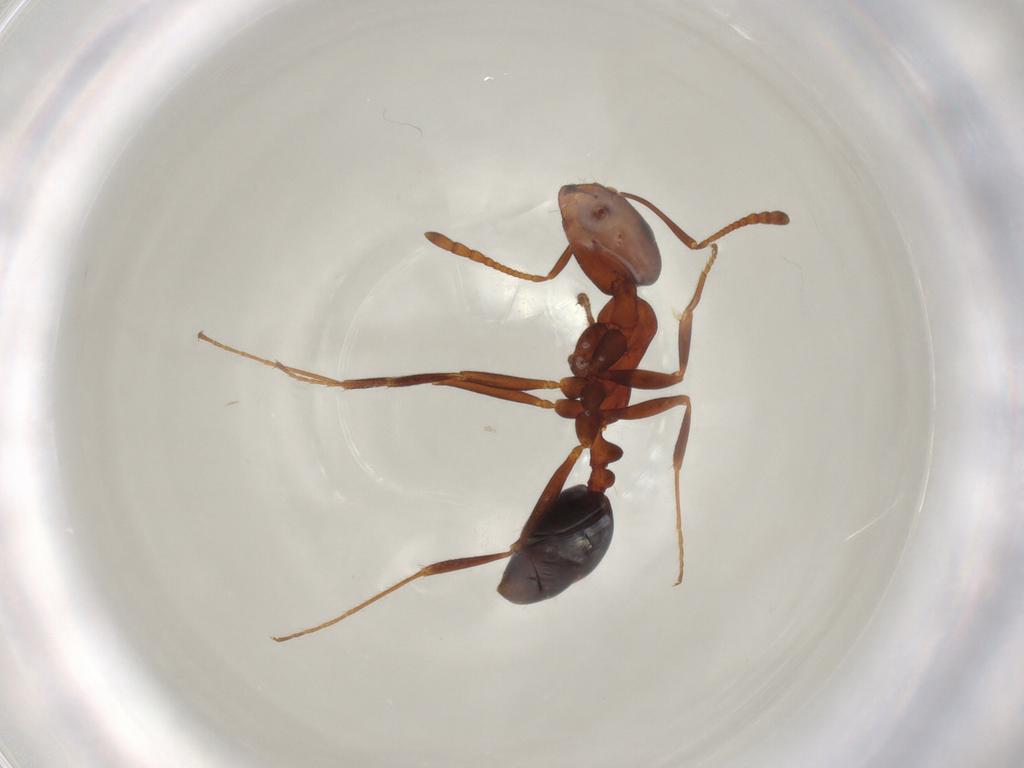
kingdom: Animalia
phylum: Arthropoda
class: Insecta
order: Hymenoptera
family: Formicidae
